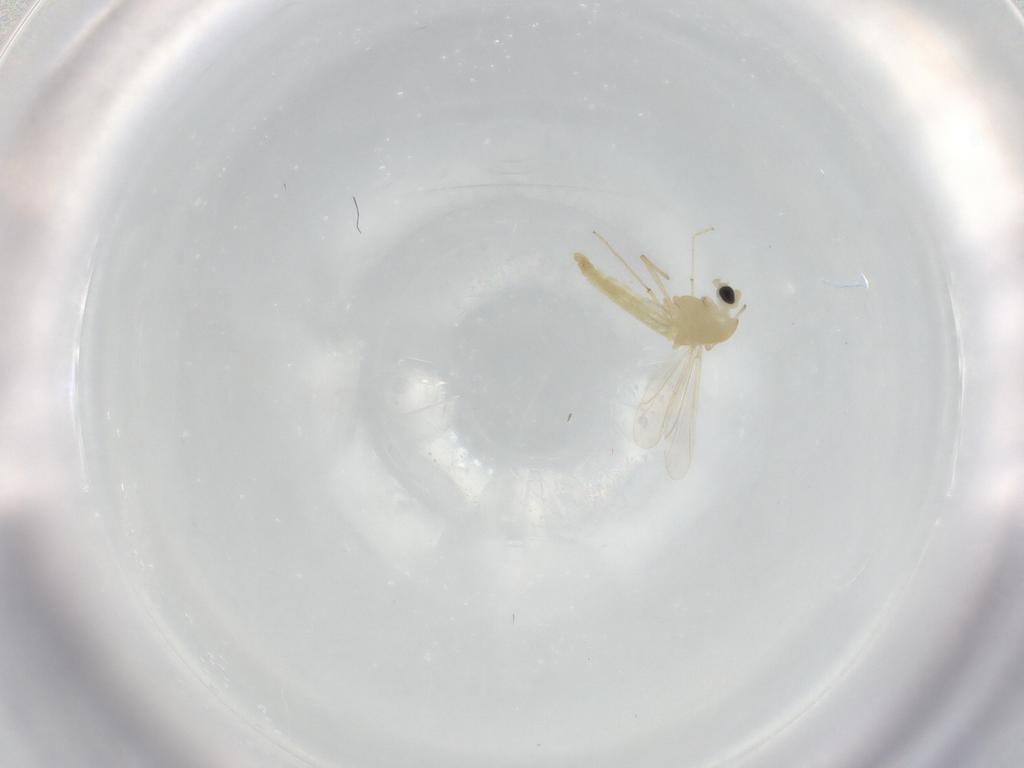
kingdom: Animalia
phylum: Arthropoda
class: Insecta
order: Diptera
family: Chironomidae
